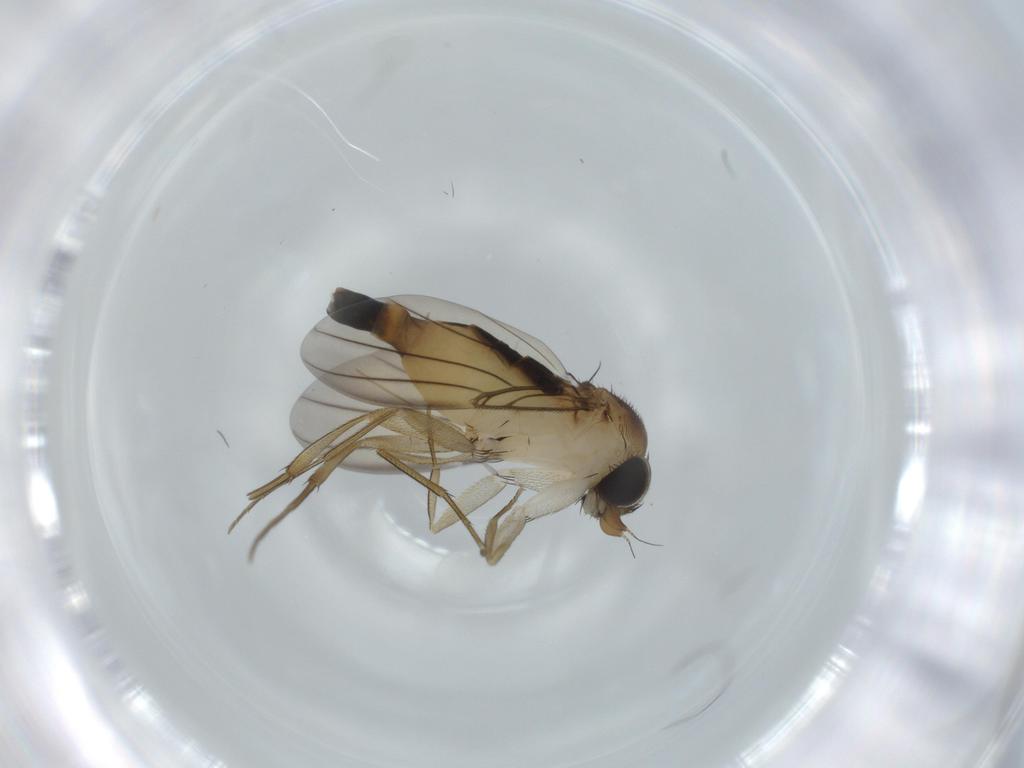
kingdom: Animalia
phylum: Arthropoda
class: Insecta
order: Diptera
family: Phoridae
